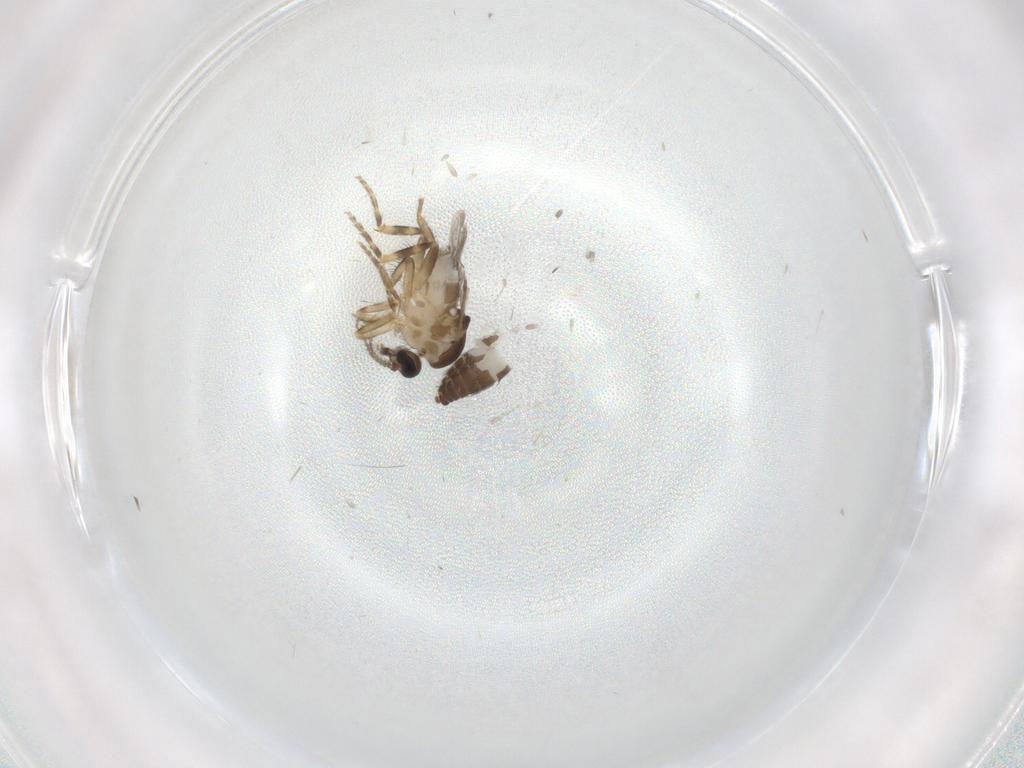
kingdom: Animalia
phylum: Arthropoda
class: Insecta
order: Diptera
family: Ceratopogonidae
